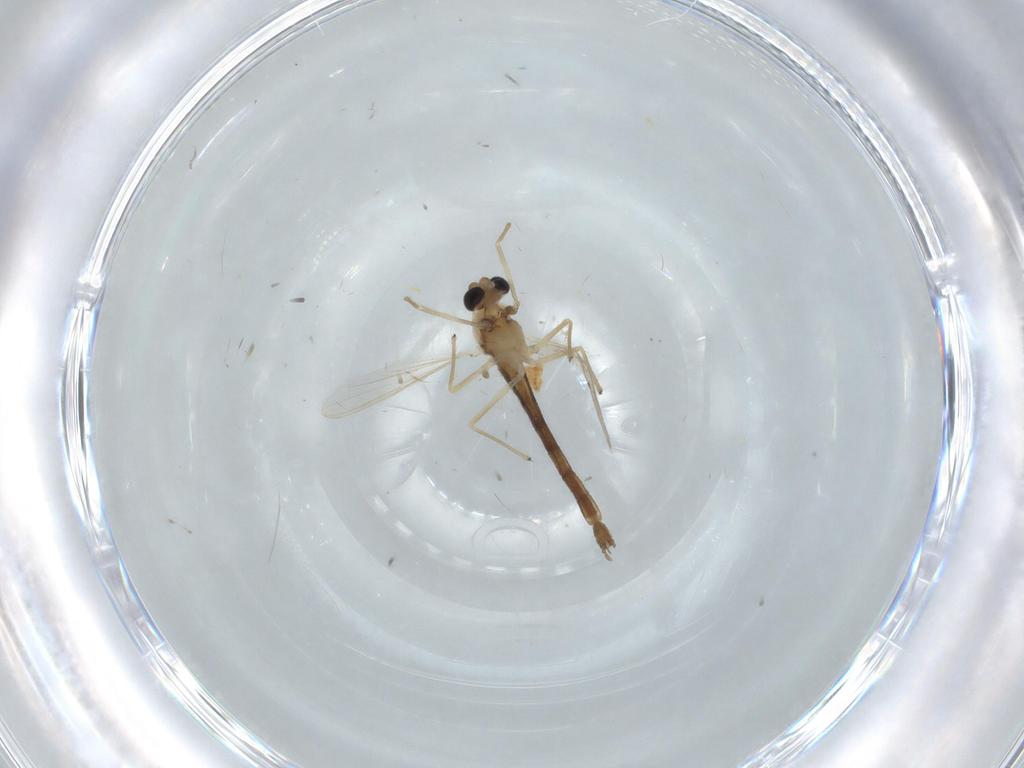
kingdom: Animalia
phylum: Arthropoda
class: Insecta
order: Diptera
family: Chironomidae
